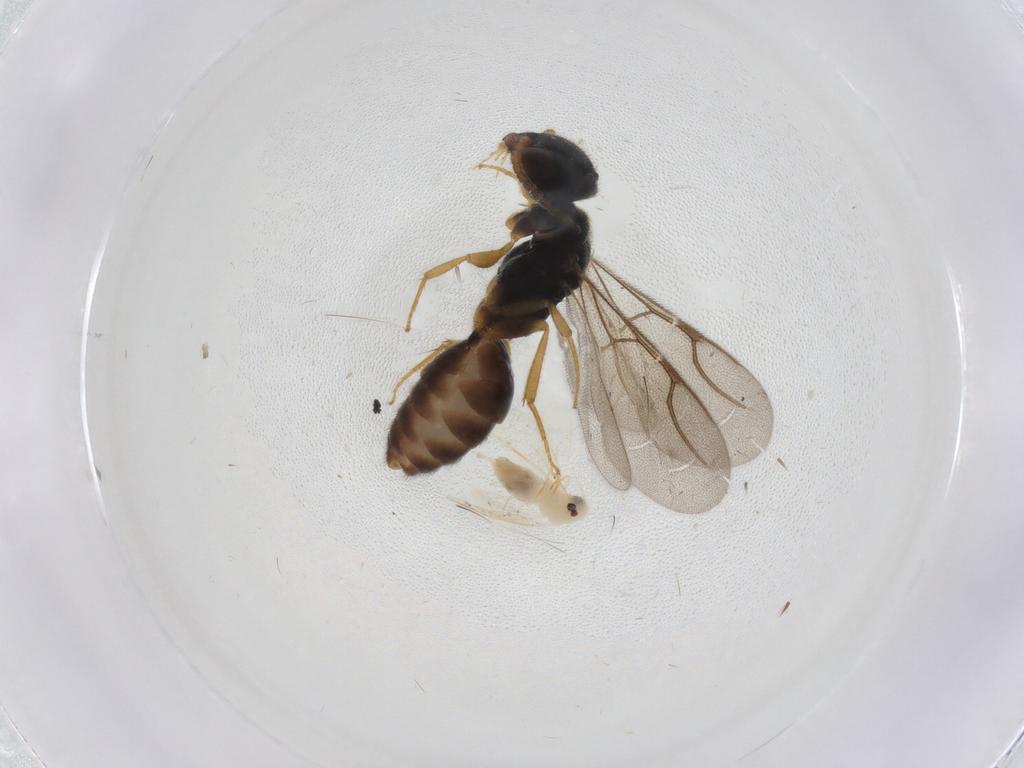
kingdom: Animalia
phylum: Arthropoda
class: Insecta
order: Hymenoptera
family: Bethylidae
